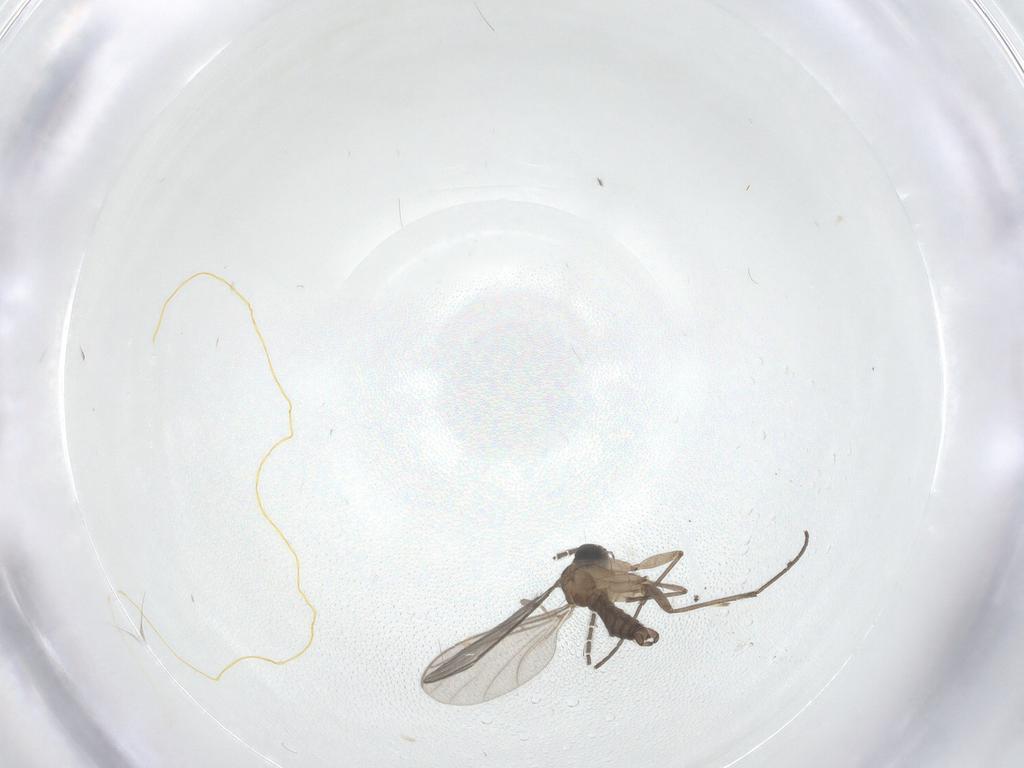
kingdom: Animalia
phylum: Arthropoda
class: Insecta
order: Diptera
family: Sciaridae
